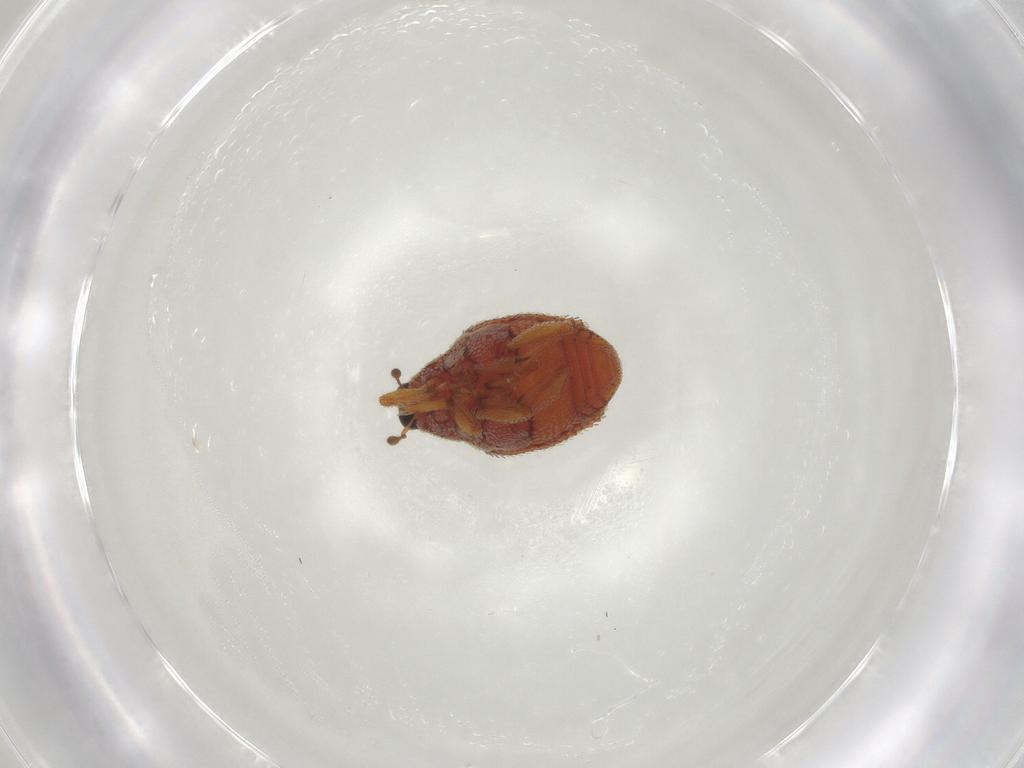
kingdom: Animalia
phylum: Arthropoda
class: Insecta
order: Coleoptera
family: Curculionidae
